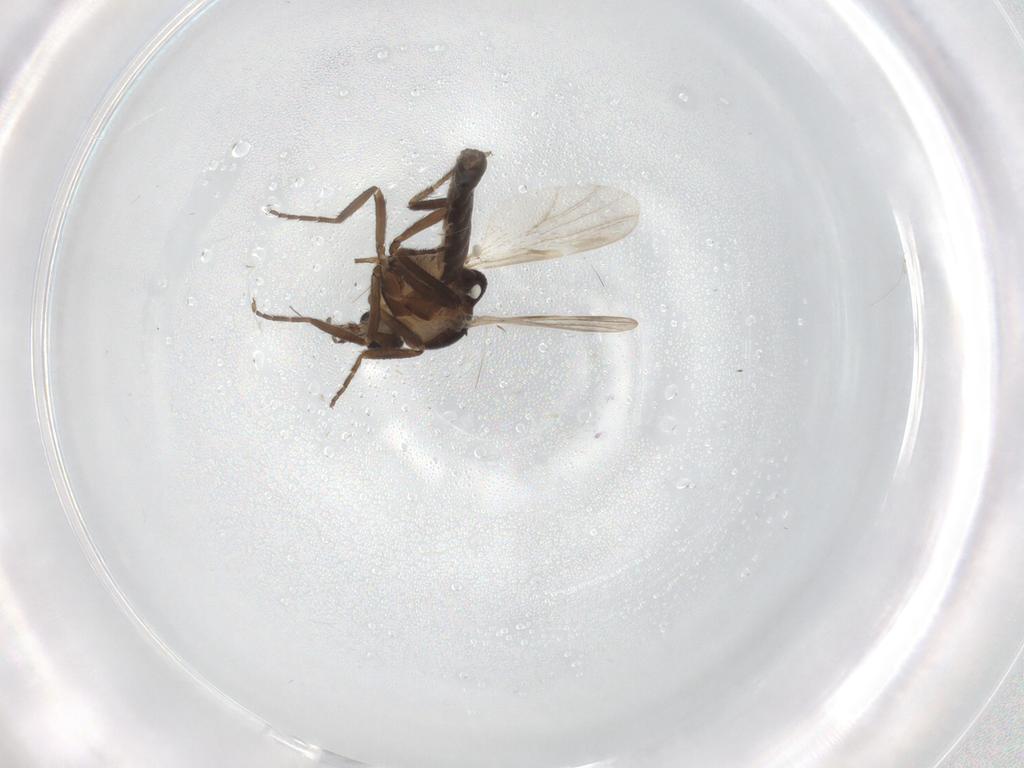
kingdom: Animalia
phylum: Arthropoda
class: Insecta
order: Diptera
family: Ceratopogonidae
